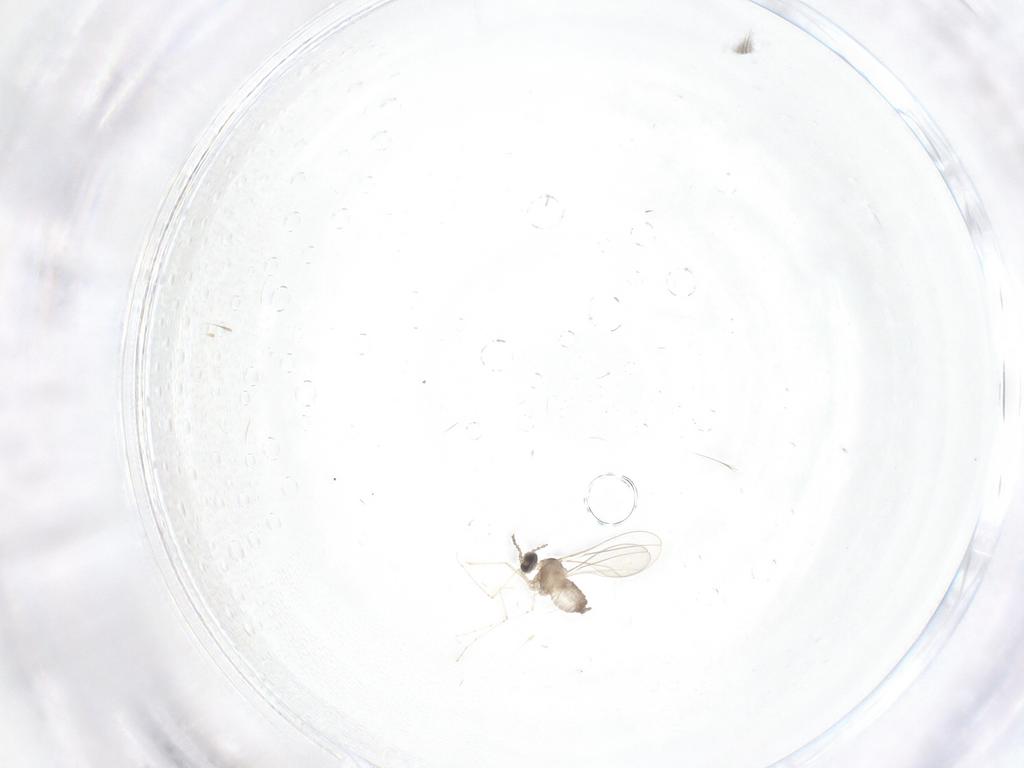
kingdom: Animalia
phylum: Arthropoda
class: Insecta
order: Diptera
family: Cecidomyiidae
